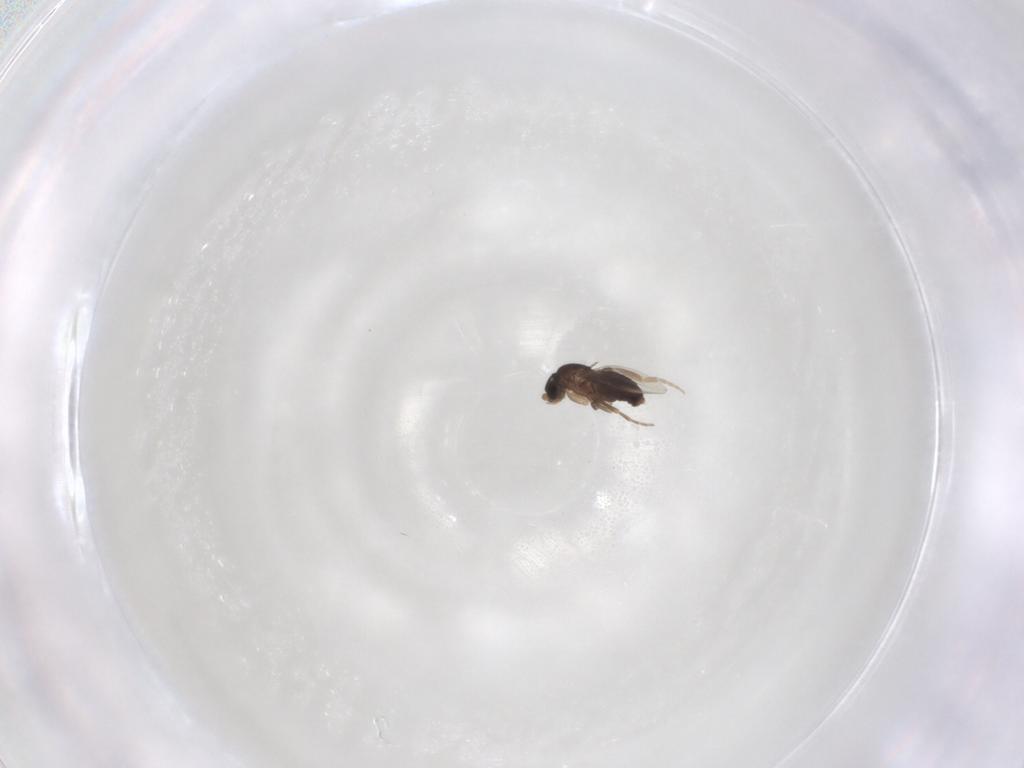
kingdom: Animalia
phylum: Arthropoda
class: Insecta
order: Diptera
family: Phoridae
